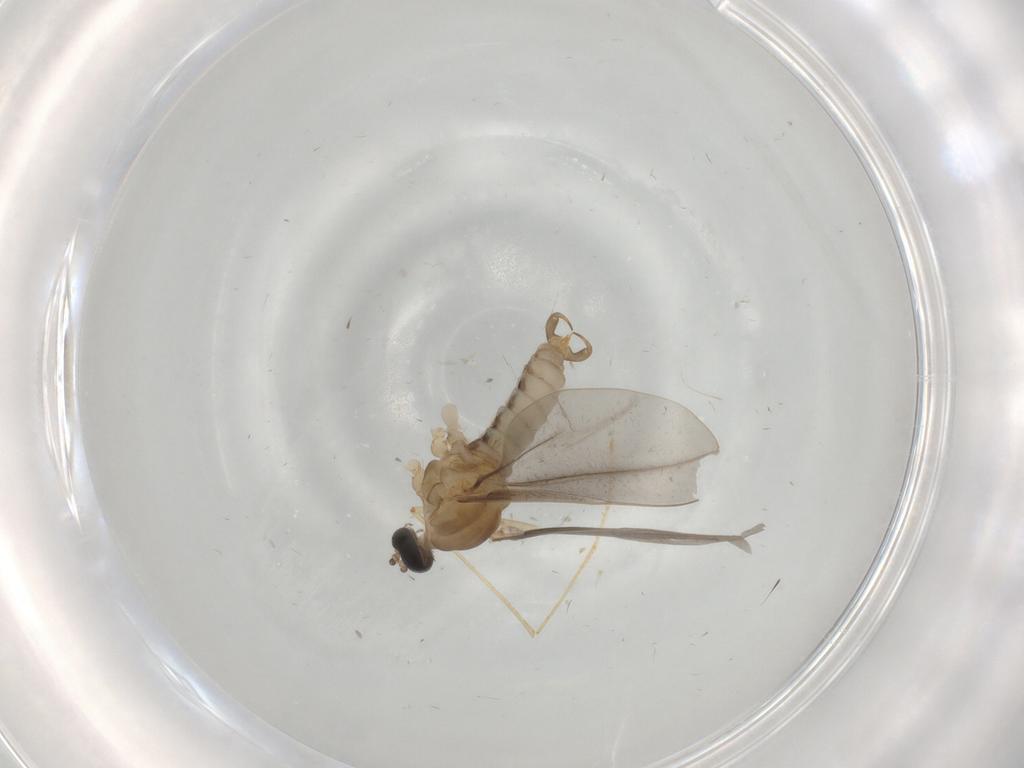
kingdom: Animalia
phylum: Arthropoda
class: Insecta
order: Diptera
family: Cecidomyiidae
